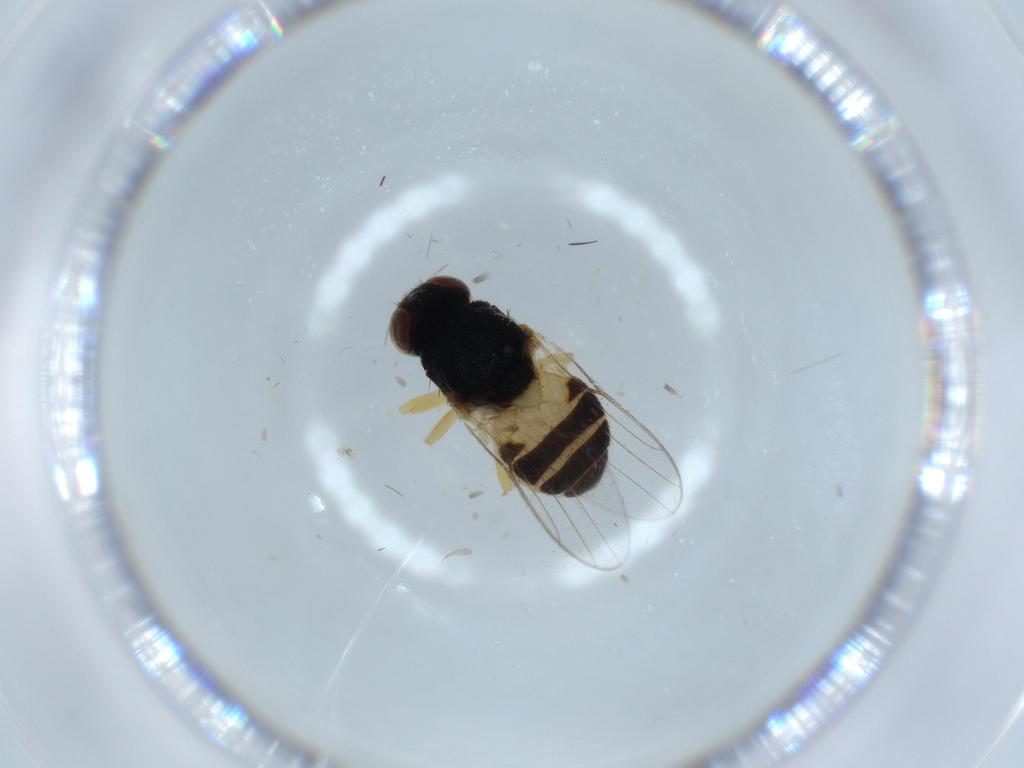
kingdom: Animalia
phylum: Arthropoda
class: Insecta
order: Diptera
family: Chloropidae
